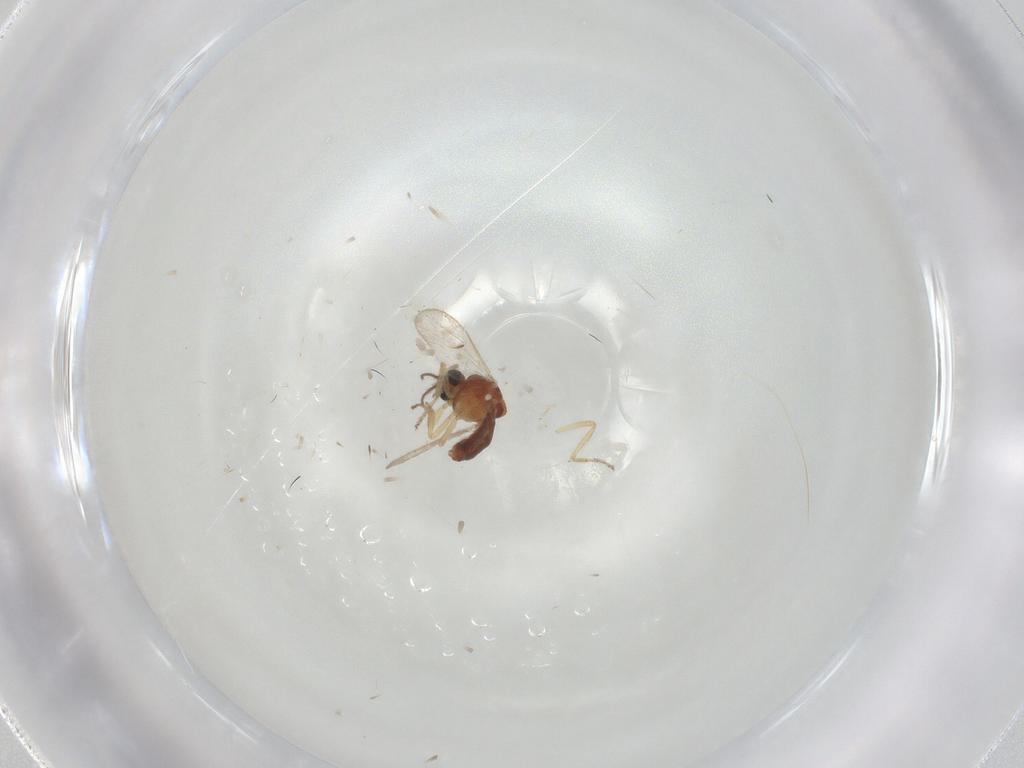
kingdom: Animalia
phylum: Arthropoda
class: Insecta
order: Diptera
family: Ceratopogonidae
